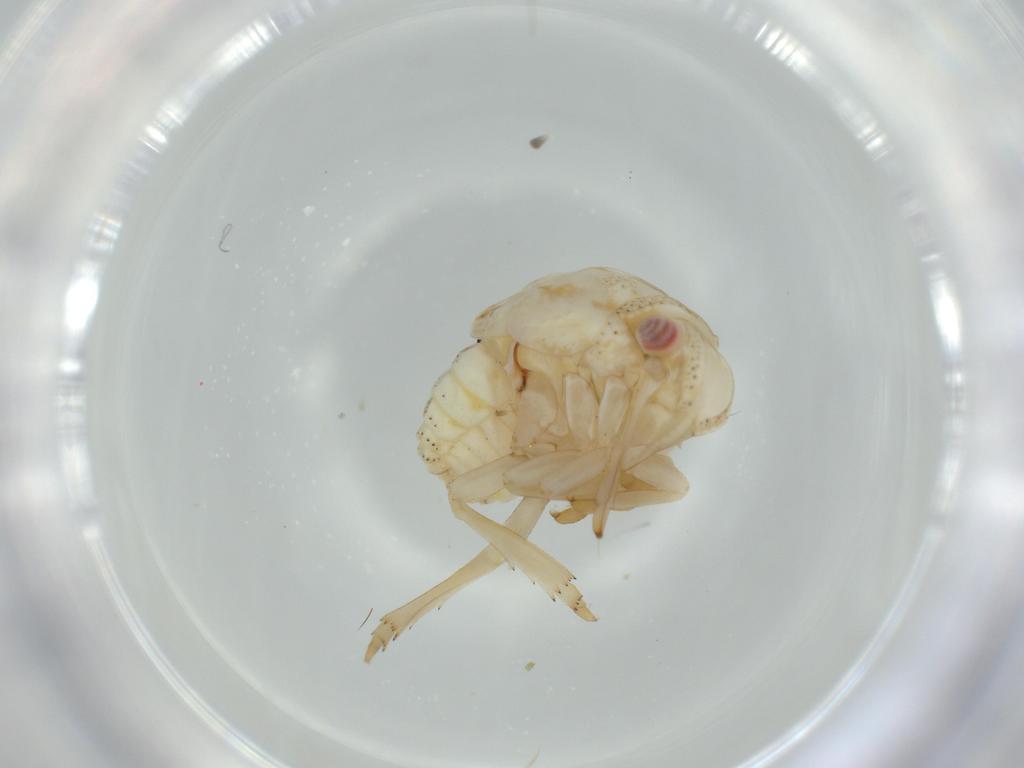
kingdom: Animalia
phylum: Arthropoda
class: Insecta
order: Hemiptera
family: Acanaloniidae
